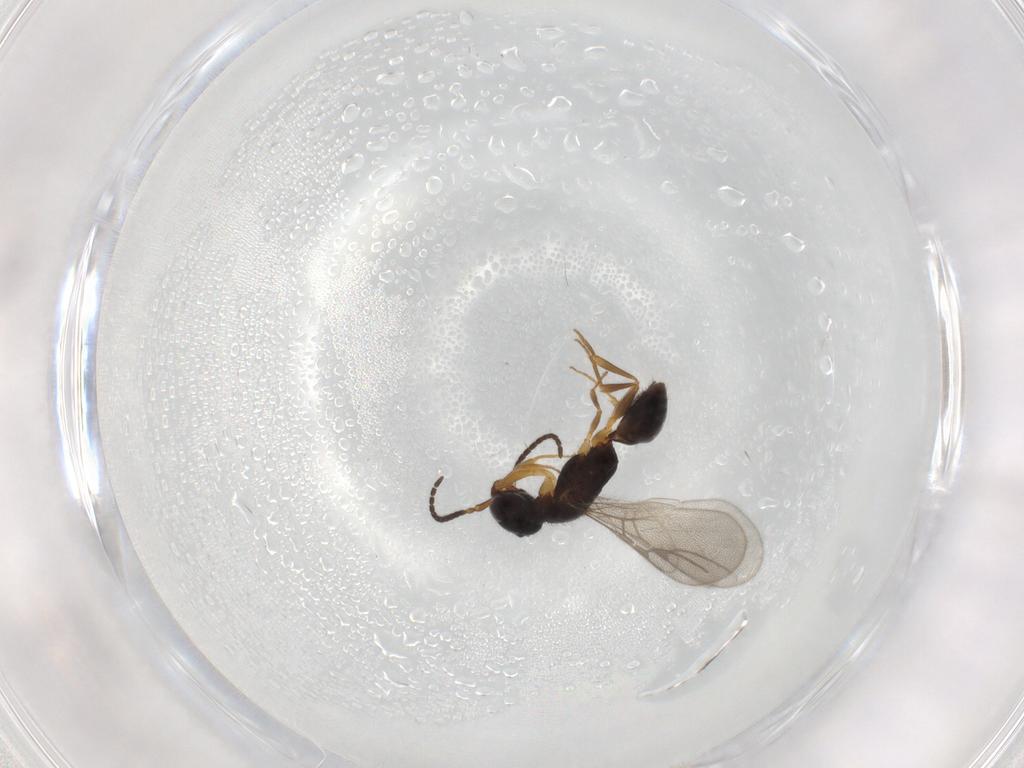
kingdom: Animalia
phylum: Arthropoda
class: Insecta
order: Hymenoptera
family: Bethylidae
